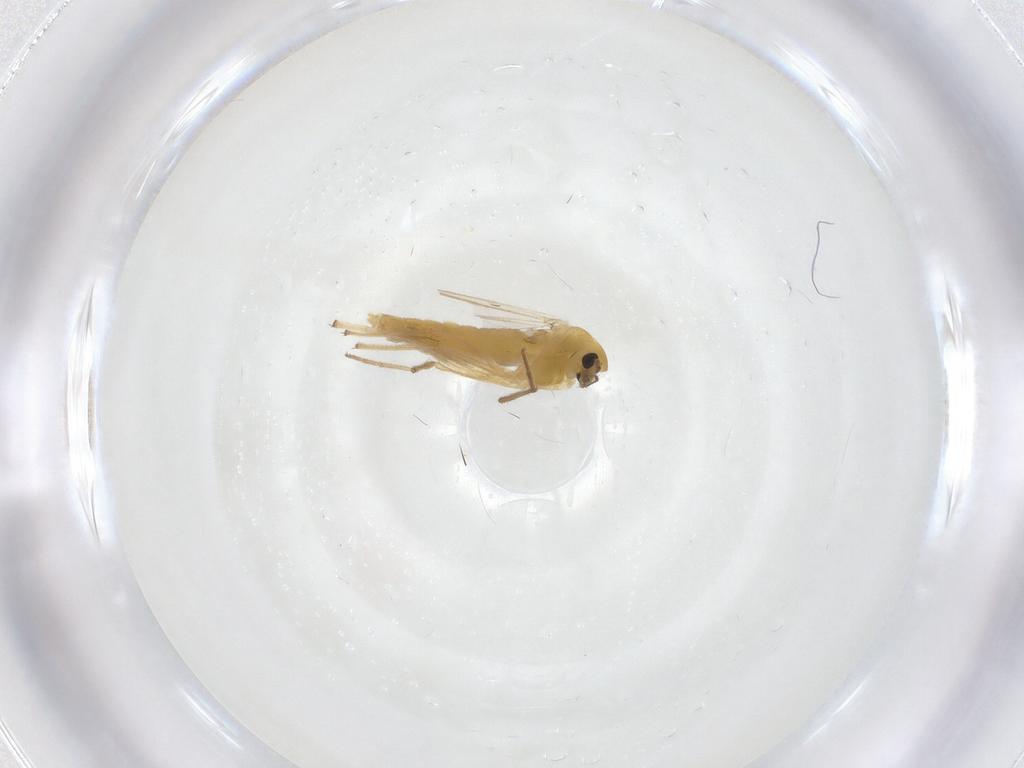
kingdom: Animalia
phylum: Arthropoda
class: Insecta
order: Diptera
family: Chironomidae
